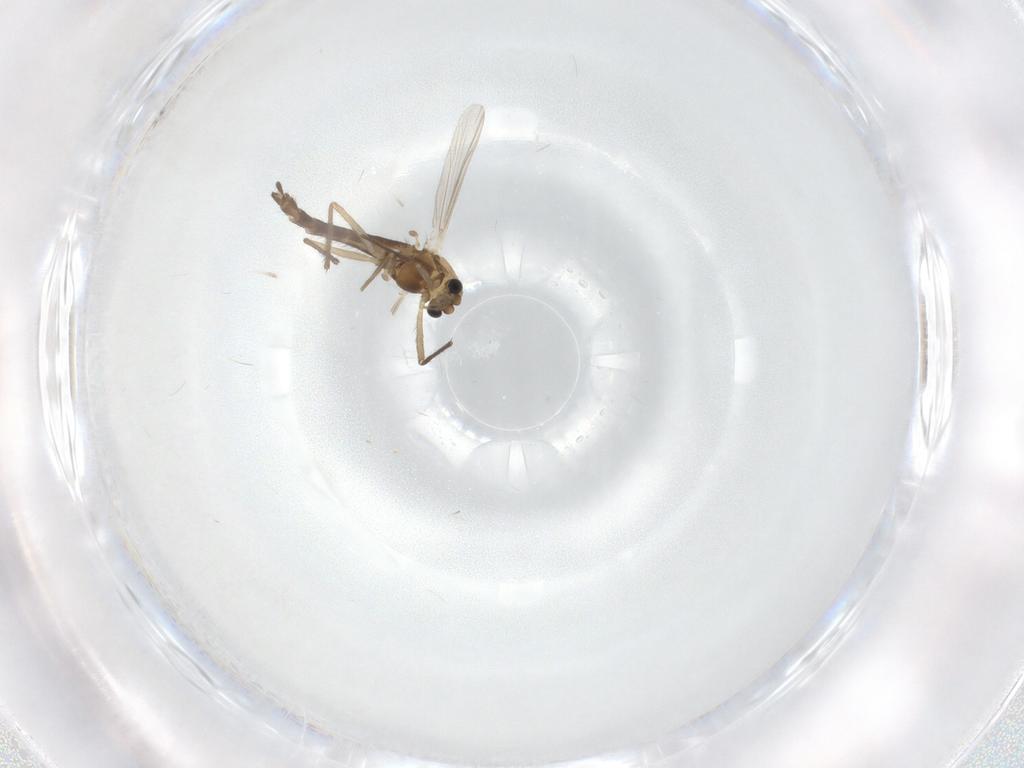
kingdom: Animalia
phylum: Arthropoda
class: Insecta
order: Diptera
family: Chironomidae
